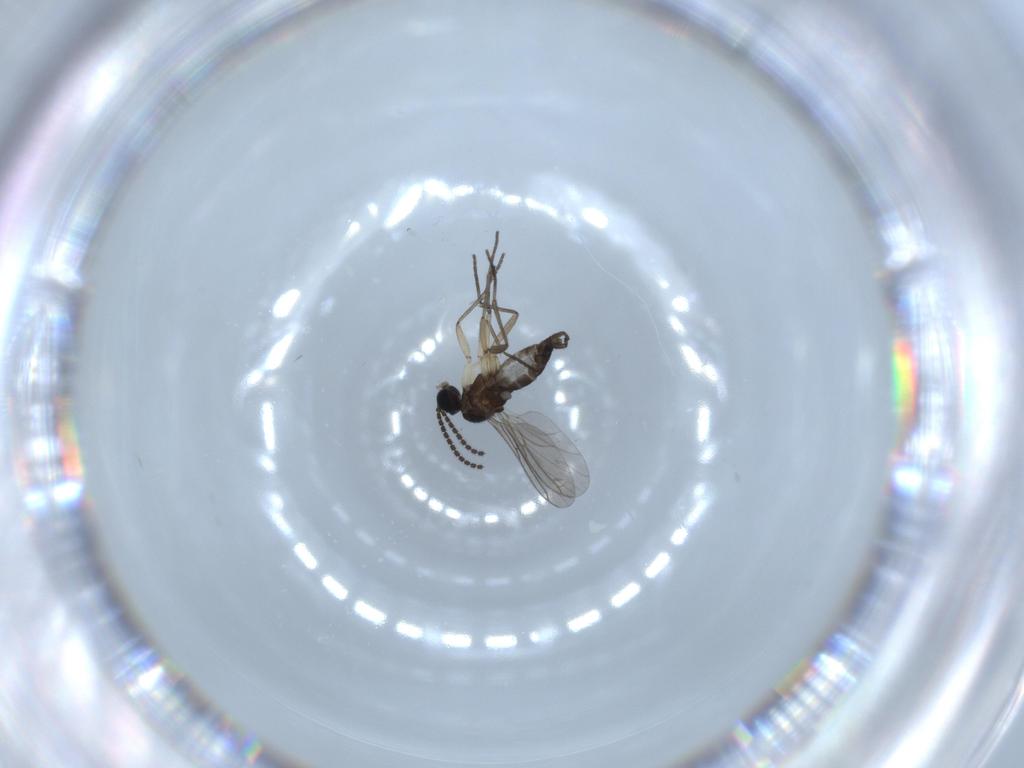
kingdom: Animalia
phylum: Arthropoda
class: Insecta
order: Diptera
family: Sciaridae
